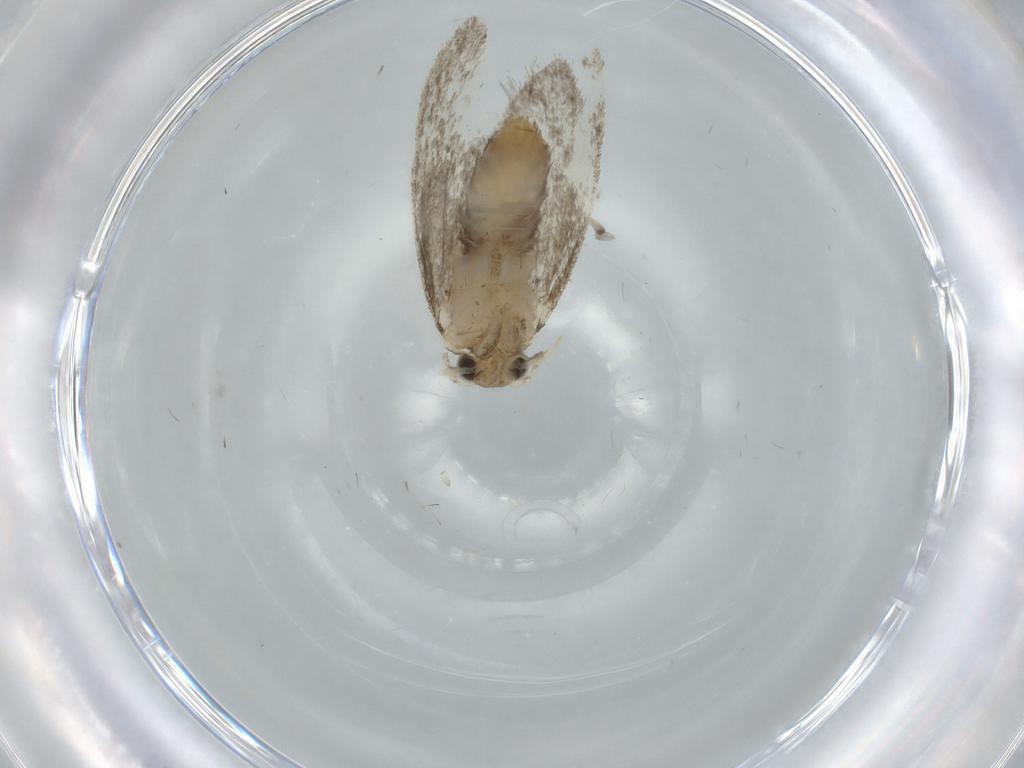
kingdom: Animalia
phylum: Arthropoda
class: Insecta
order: Lepidoptera
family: Tineidae
